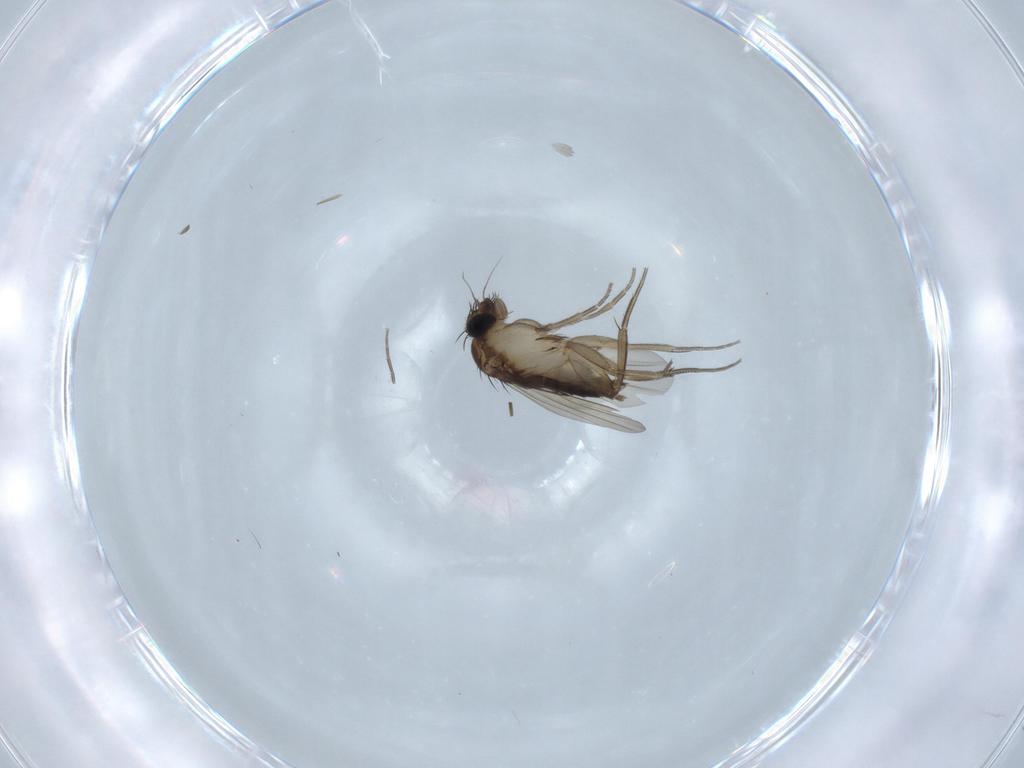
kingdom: Animalia
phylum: Arthropoda
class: Insecta
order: Diptera
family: Phoridae
